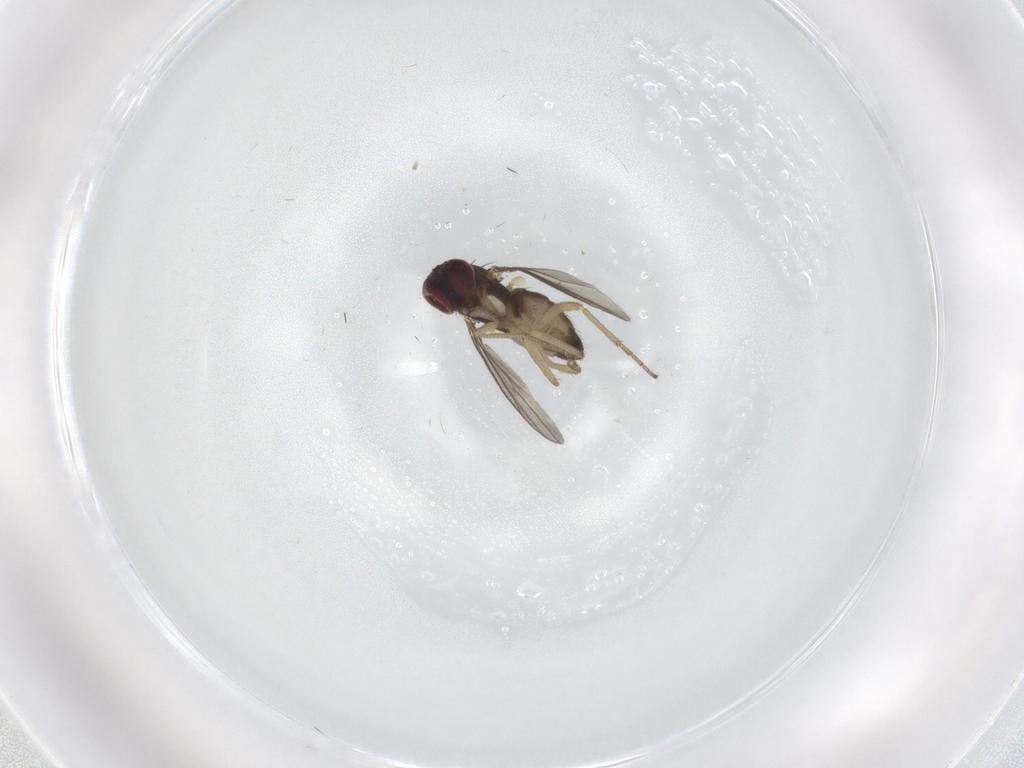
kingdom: Animalia
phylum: Arthropoda
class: Insecta
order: Diptera
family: Dolichopodidae
